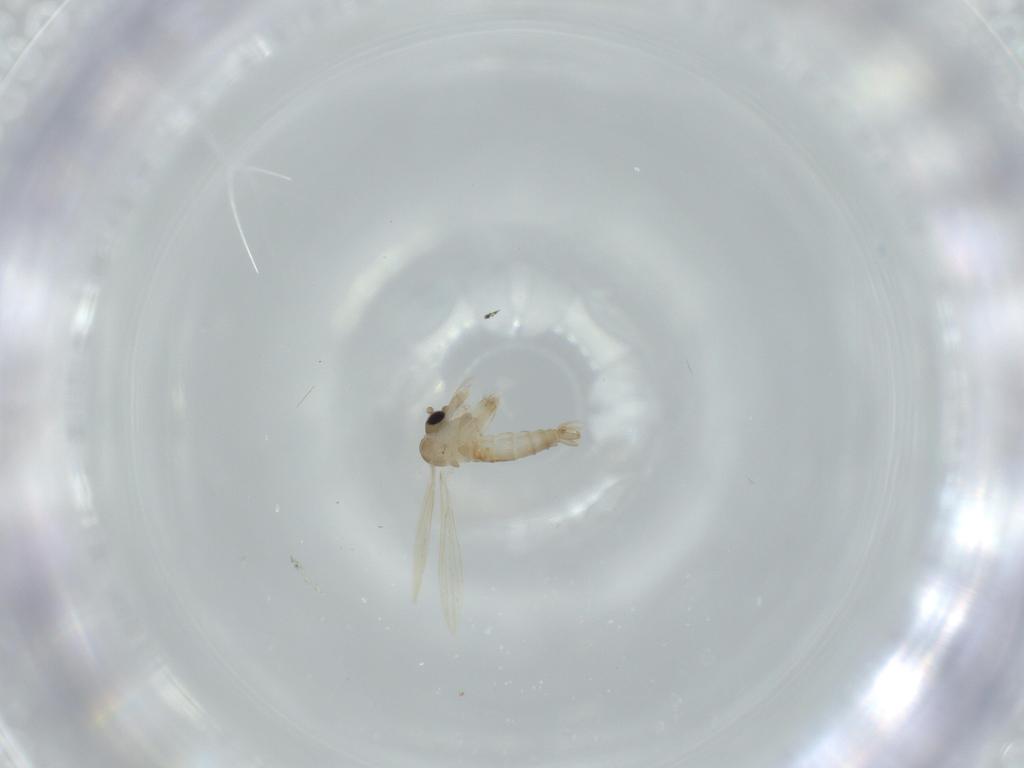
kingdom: Animalia
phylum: Arthropoda
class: Insecta
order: Diptera
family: Psychodidae
